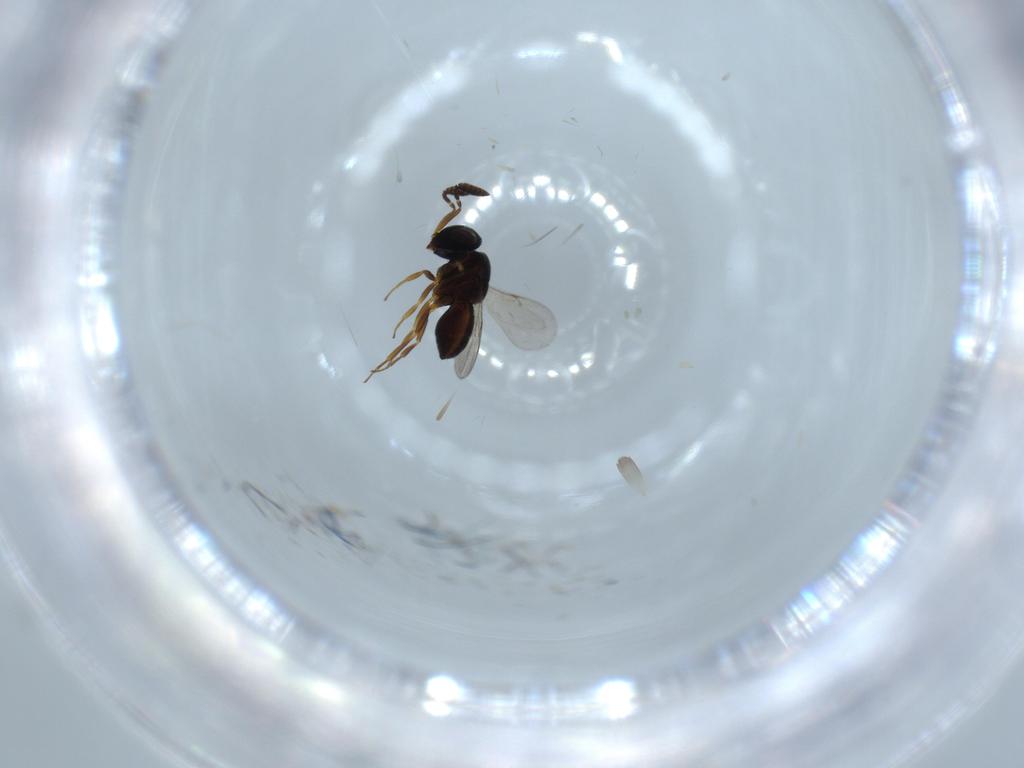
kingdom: Animalia
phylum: Arthropoda
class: Insecta
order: Coleoptera
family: Curculionidae
